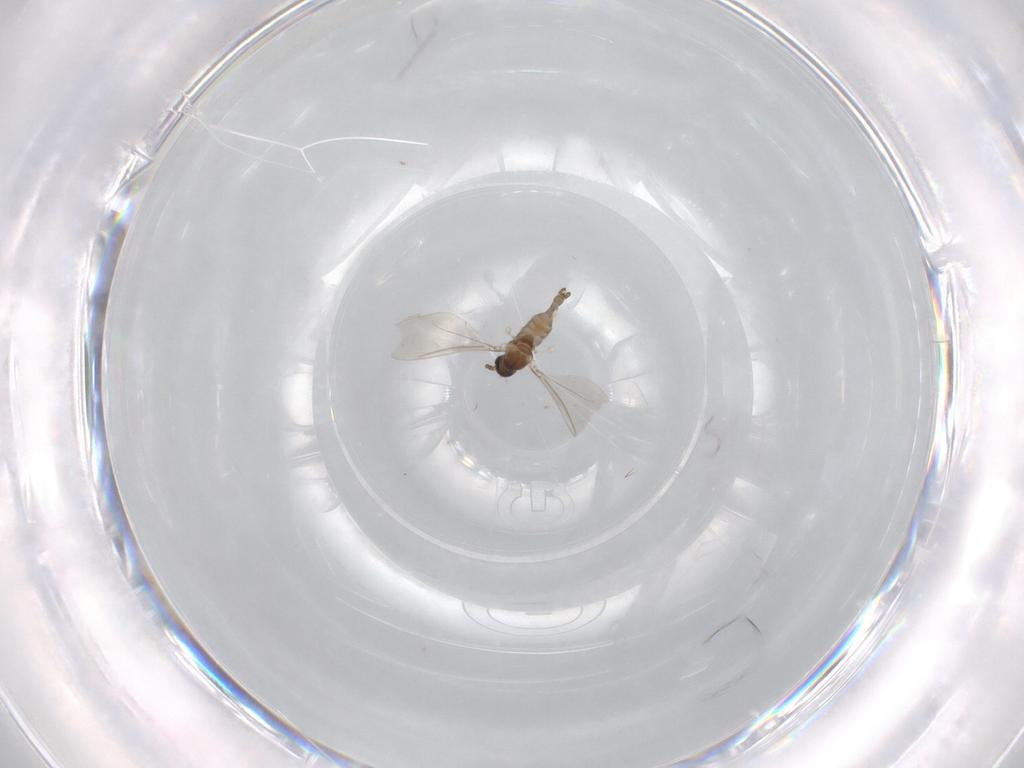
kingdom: Animalia
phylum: Arthropoda
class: Insecta
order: Diptera
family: Cecidomyiidae
